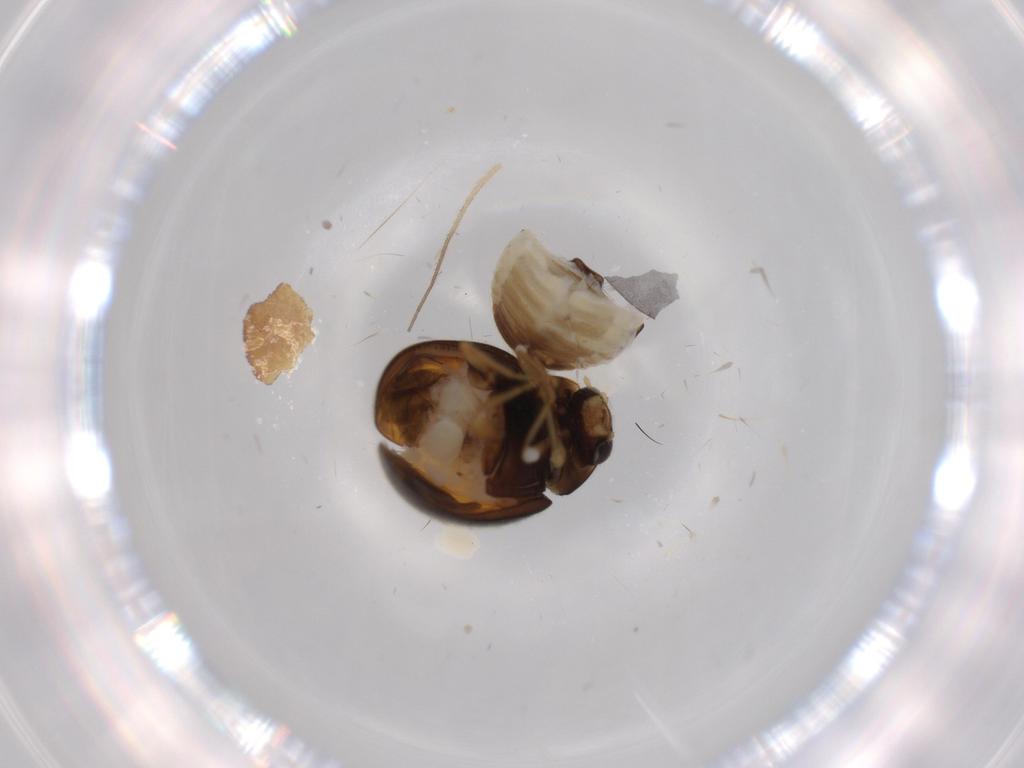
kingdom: Animalia
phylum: Arthropoda
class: Insecta
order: Coleoptera
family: Coccinellidae
